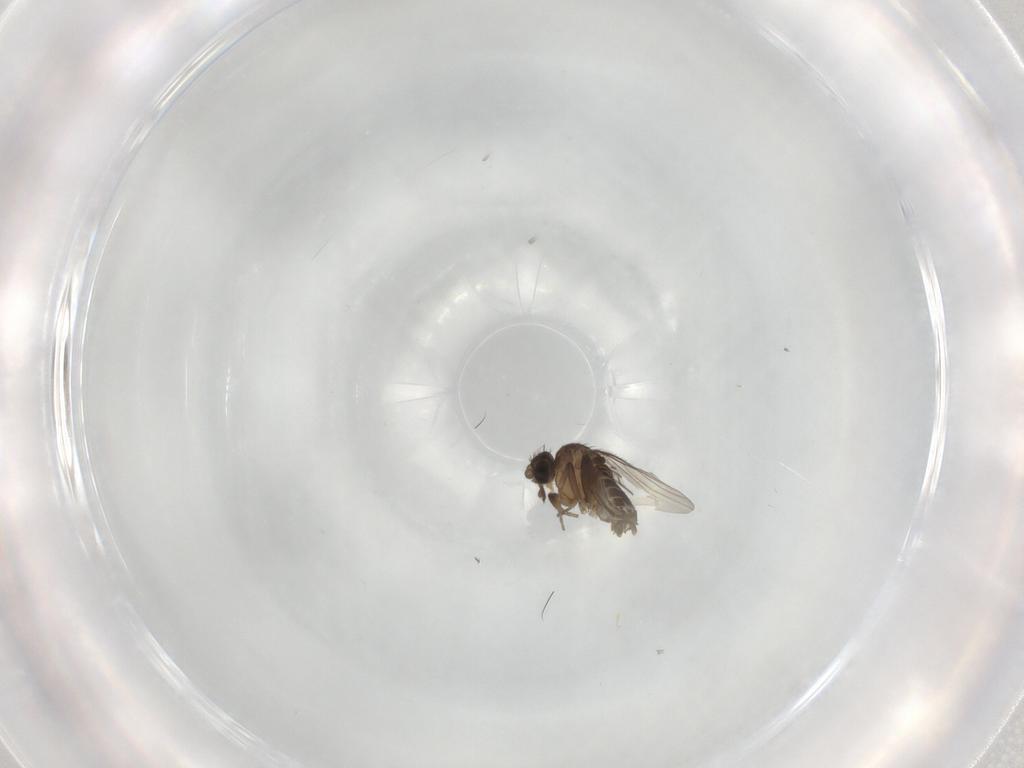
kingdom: Animalia
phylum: Arthropoda
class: Insecta
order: Diptera
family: Phoridae
